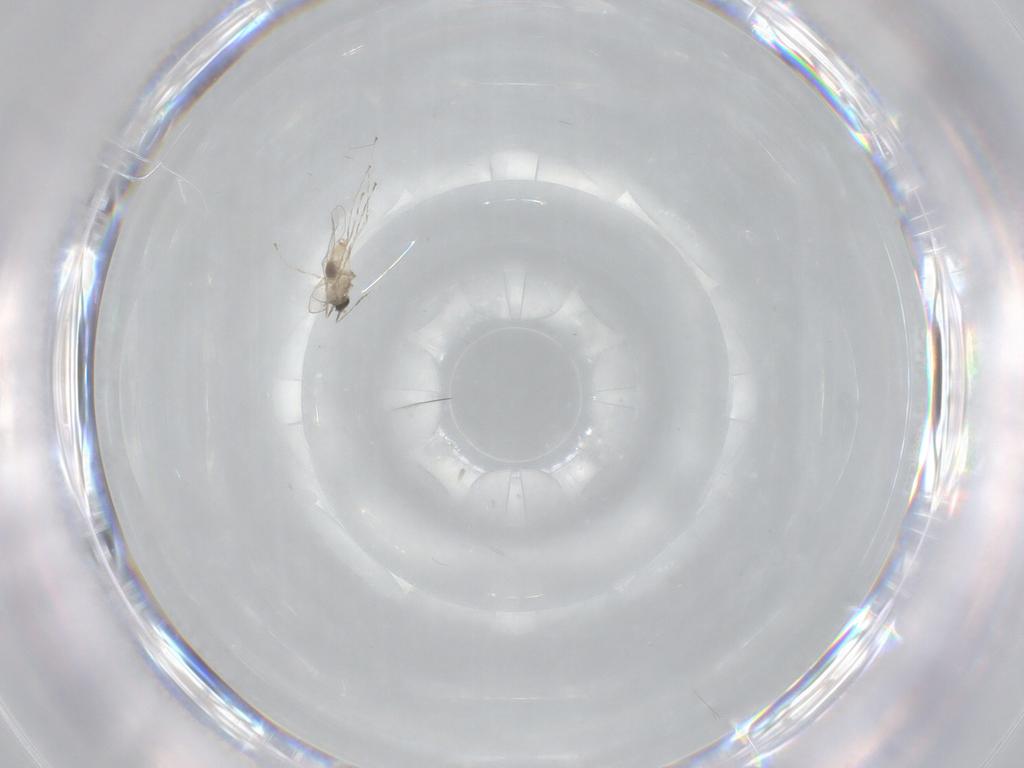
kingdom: Animalia
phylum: Arthropoda
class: Insecta
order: Diptera
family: Cecidomyiidae
